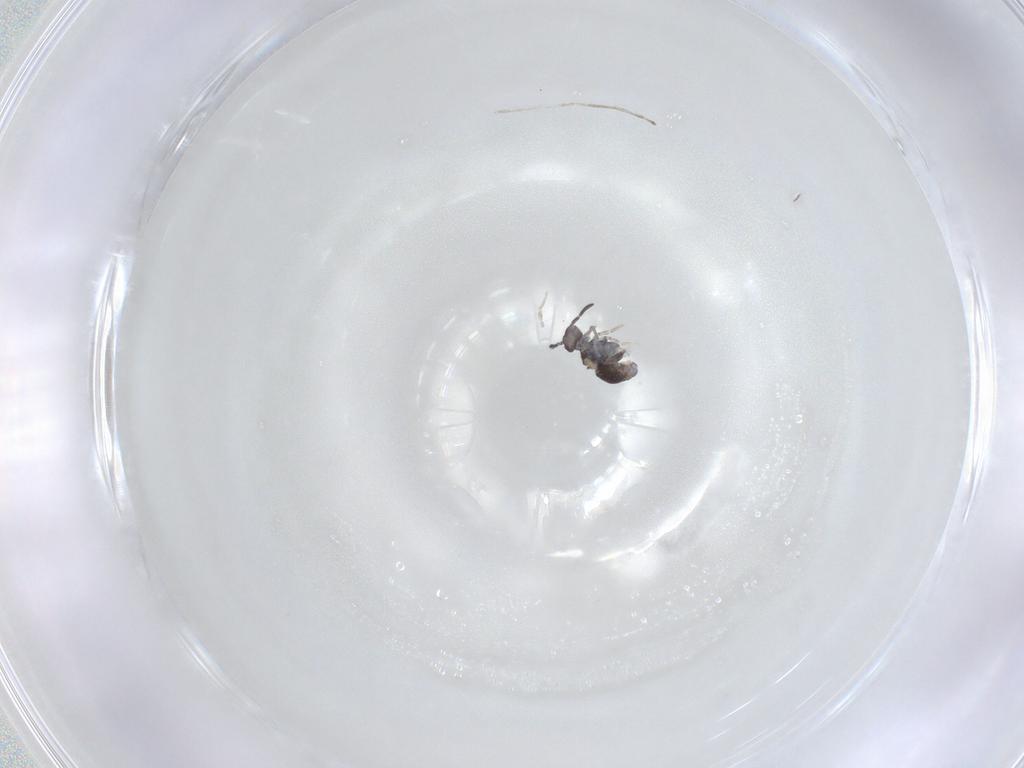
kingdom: Animalia
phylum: Arthropoda
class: Collembola
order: Symphypleona
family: Katiannidae
